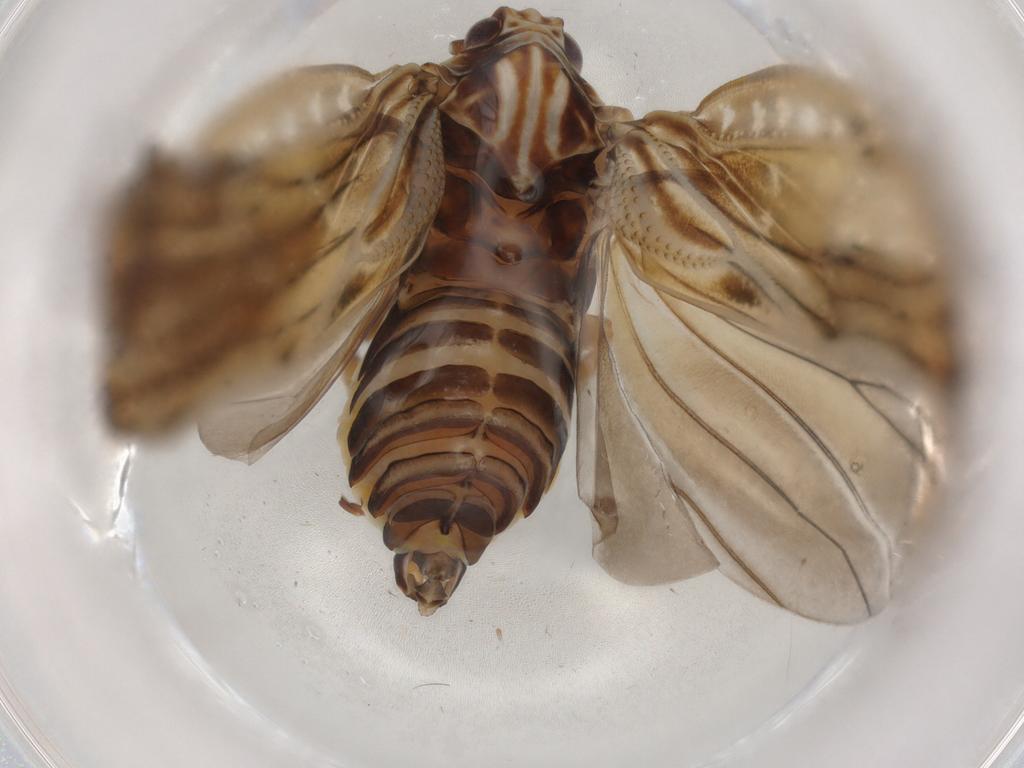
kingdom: Animalia
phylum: Arthropoda
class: Insecta
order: Hemiptera
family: Meenoplidae
